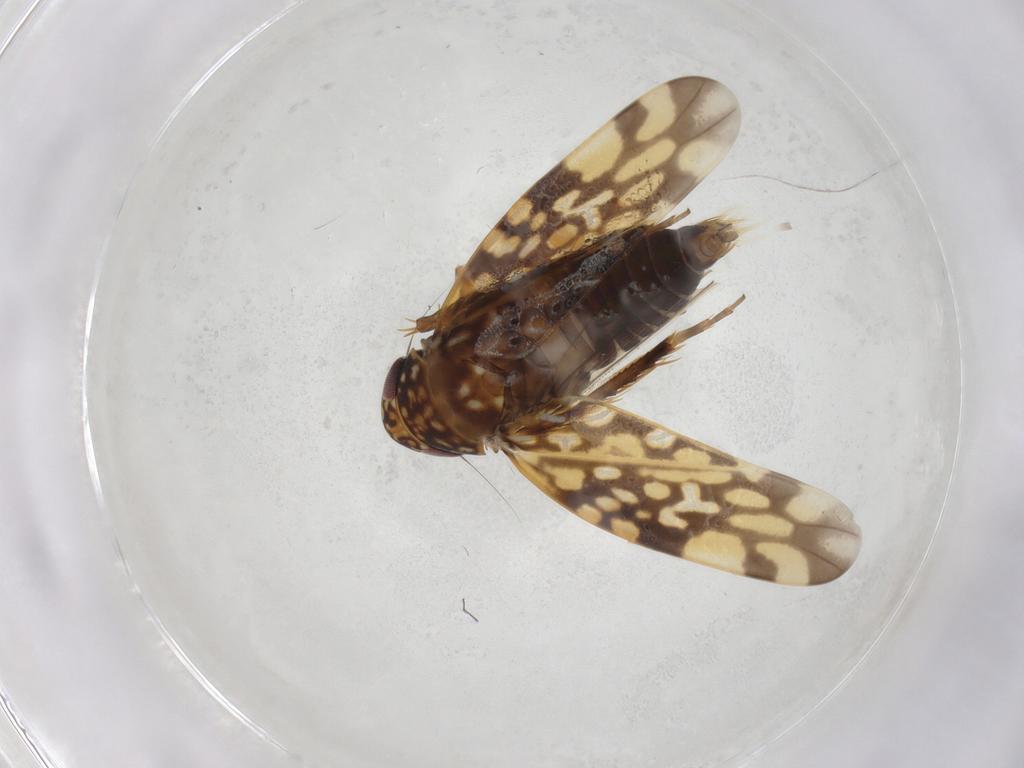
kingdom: Animalia
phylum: Arthropoda
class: Insecta
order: Hemiptera
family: Cicadellidae
